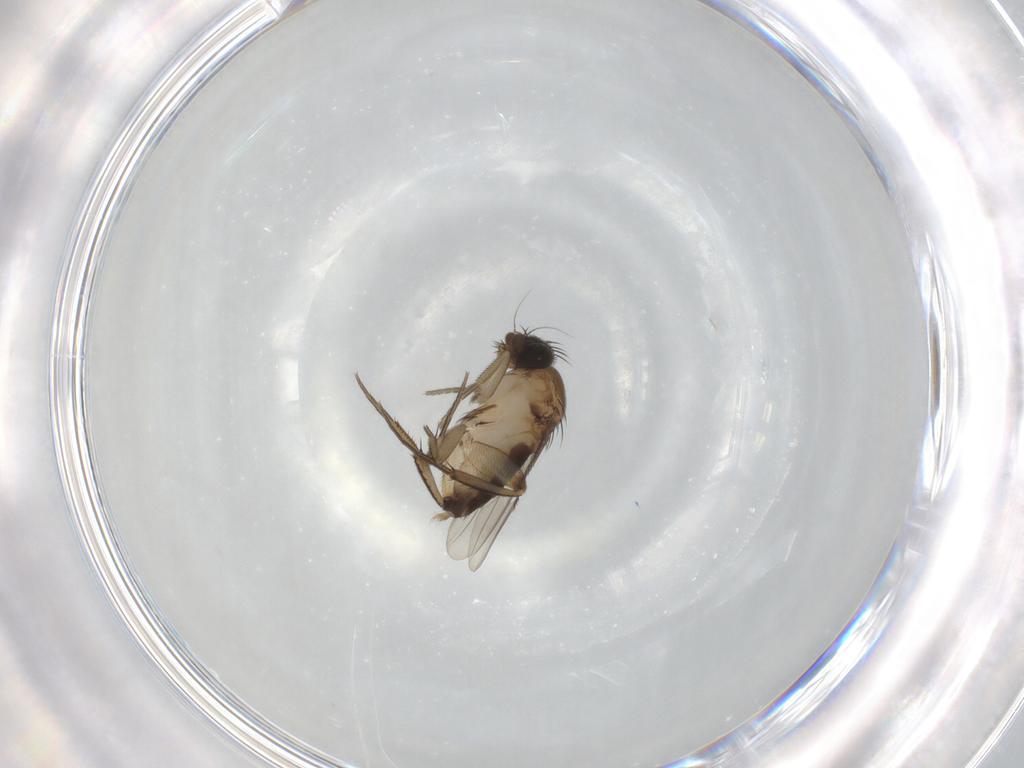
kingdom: Animalia
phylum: Arthropoda
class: Insecta
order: Diptera
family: Phoridae
